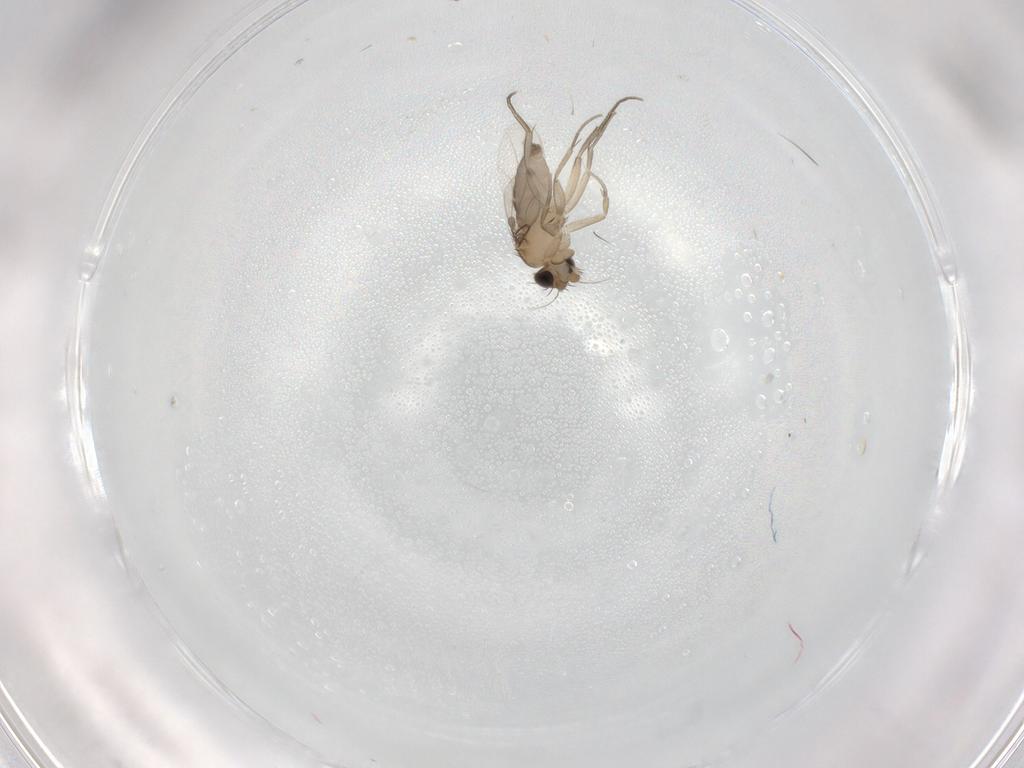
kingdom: Animalia
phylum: Arthropoda
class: Insecta
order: Diptera
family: Phoridae
